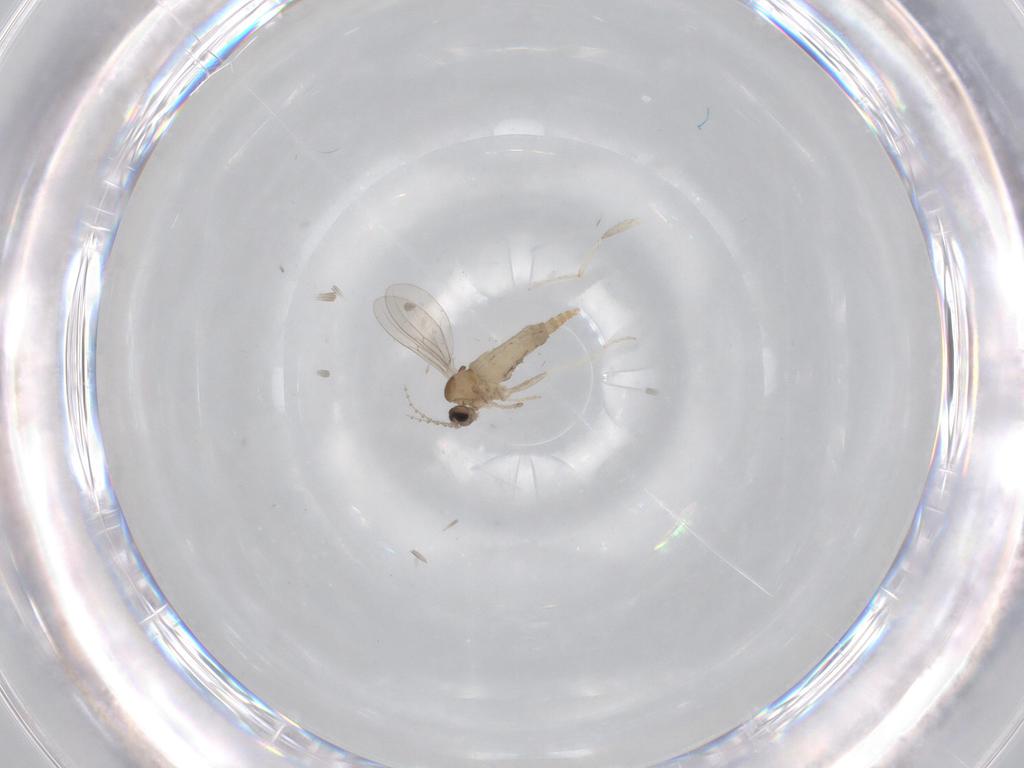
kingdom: Animalia
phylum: Arthropoda
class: Insecta
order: Diptera
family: Cecidomyiidae
